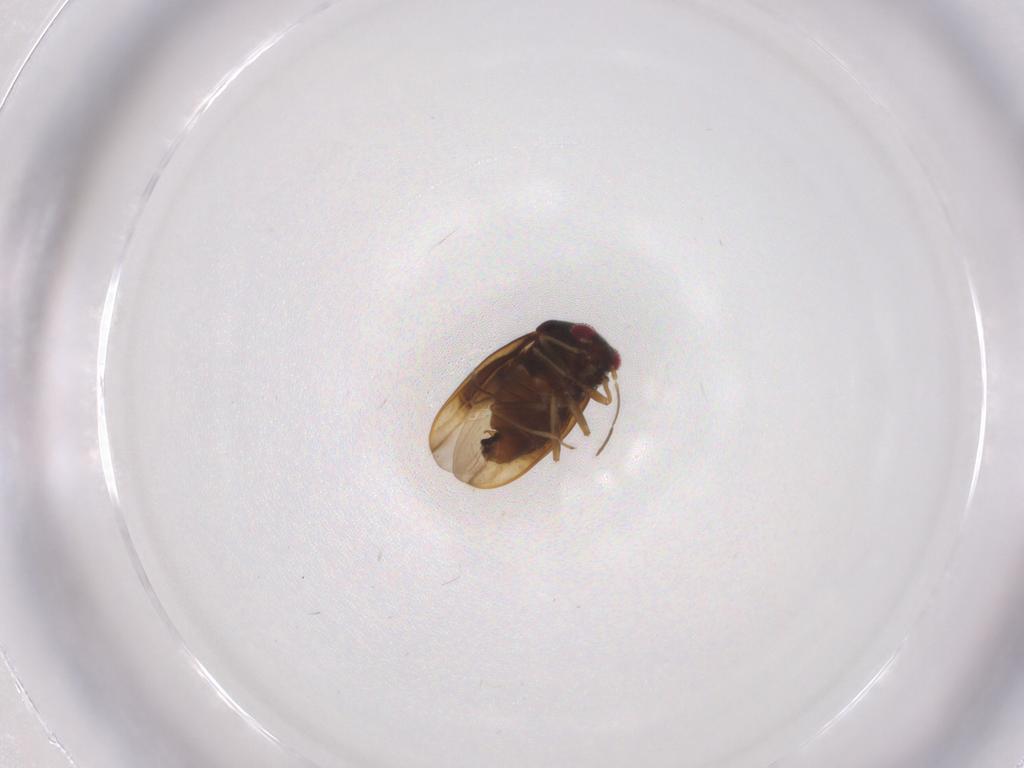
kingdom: Animalia
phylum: Arthropoda
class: Insecta
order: Hemiptera
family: Schizopteridae
